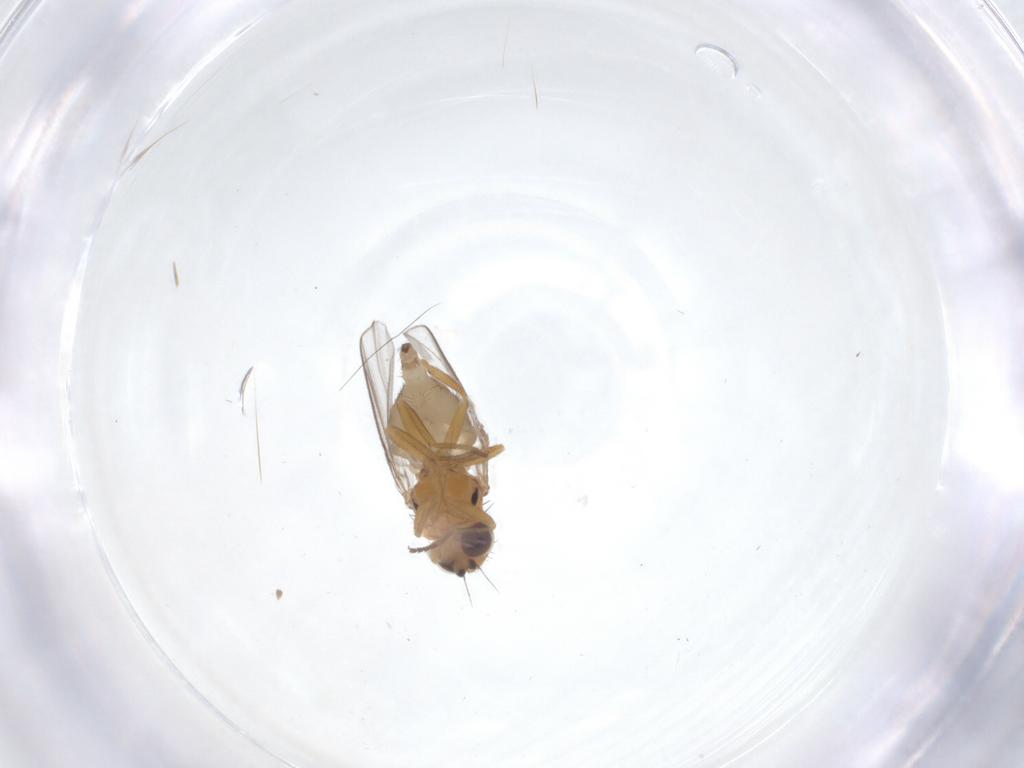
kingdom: Animalia
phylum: Arthropoda
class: Insecta
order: Diptera
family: Chloropidae
